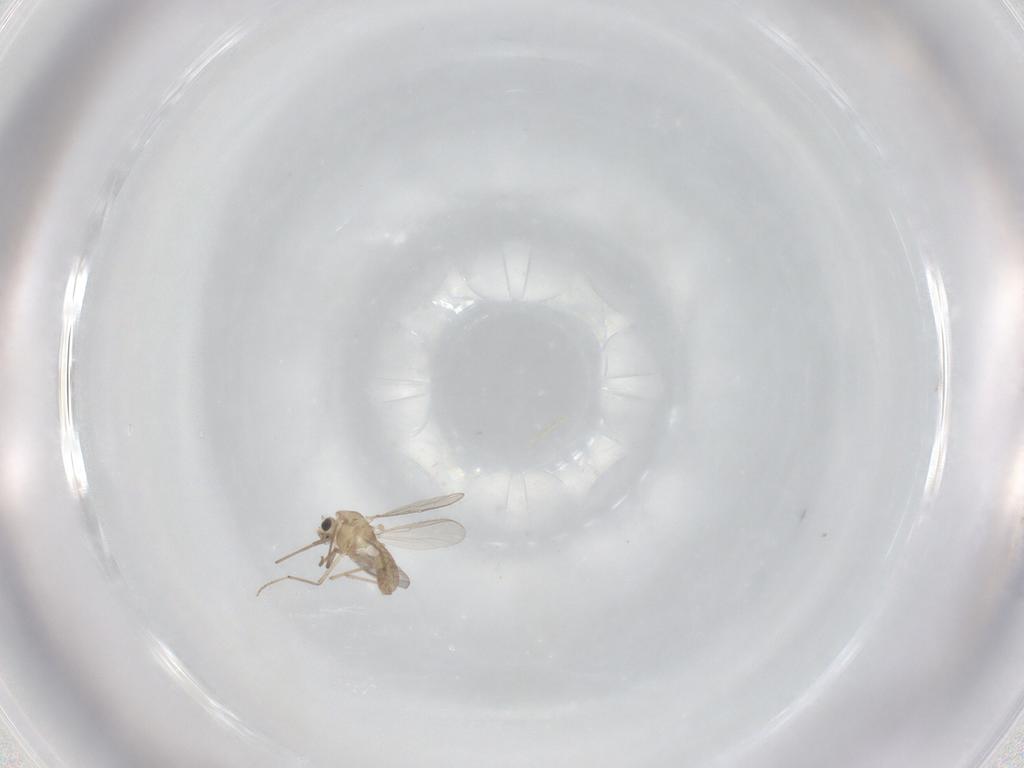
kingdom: Animalia
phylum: Arthropoda
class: Insecta
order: Diptera
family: Chironomidae
